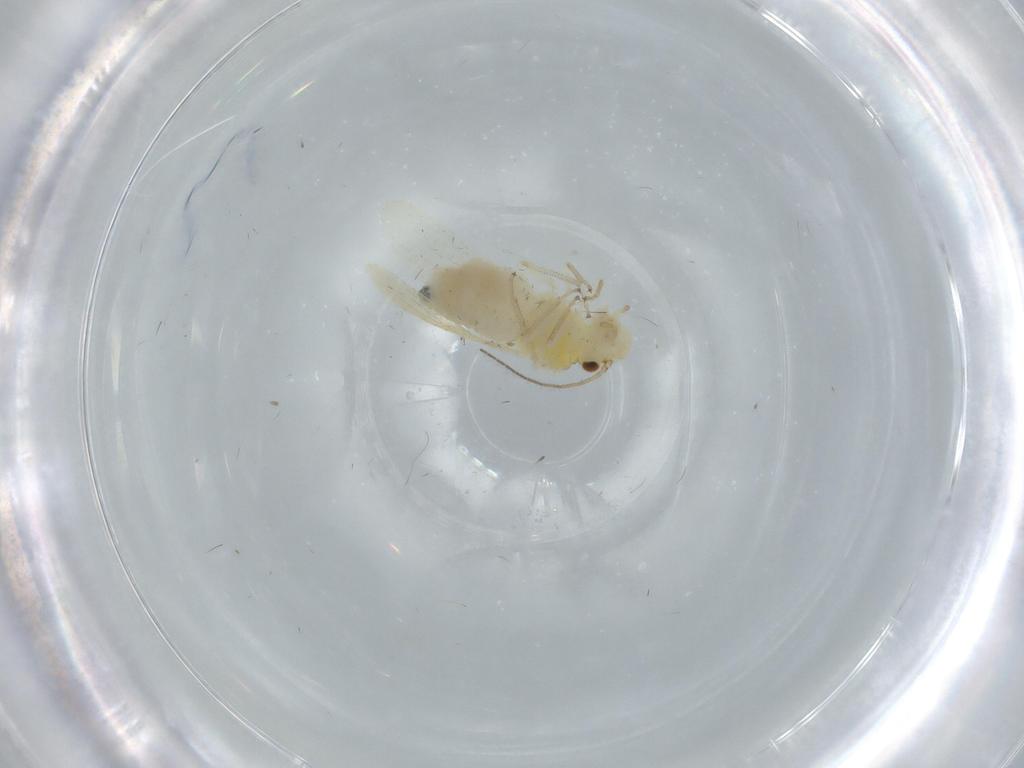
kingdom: Animalia
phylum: Arthropoda
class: Insecta
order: Psocodea
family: Caeciliusidae
